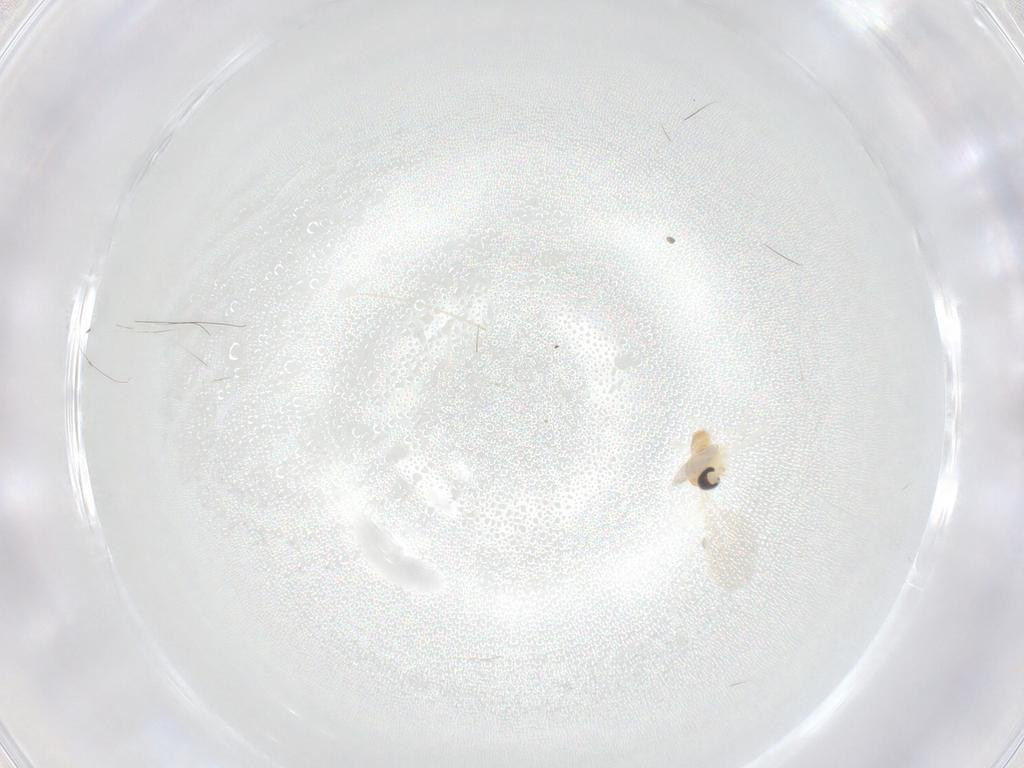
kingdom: Animalia
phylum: Arthropoda
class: Insecta
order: Diptera
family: Cecidomyiidae
